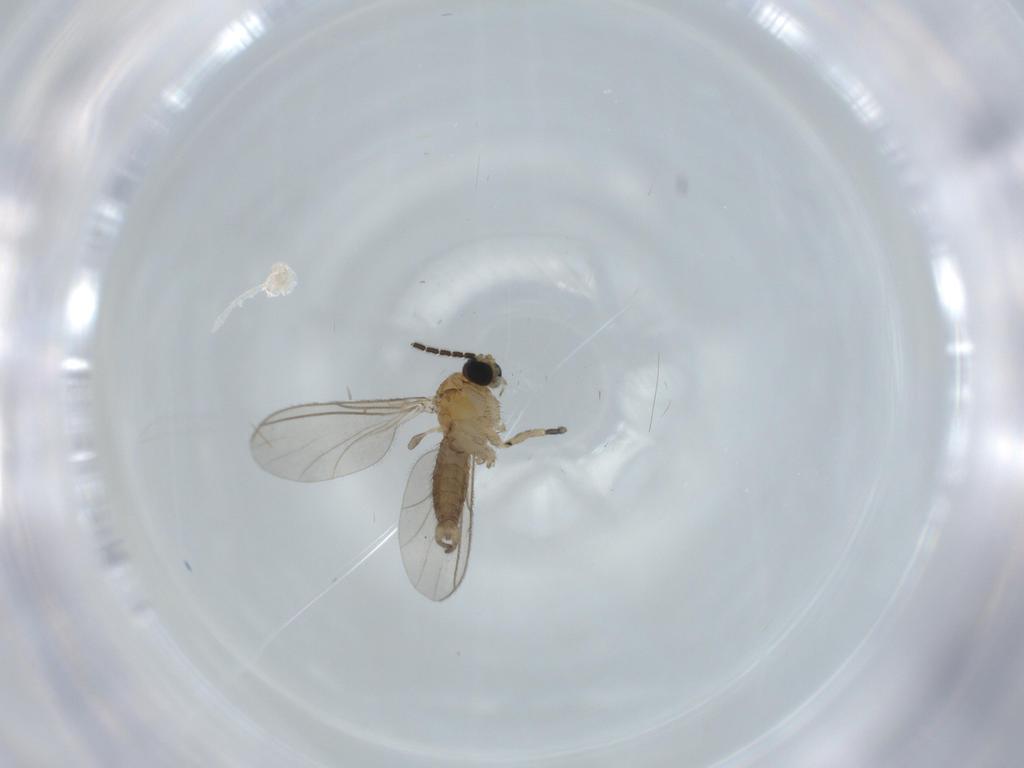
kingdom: Animalia
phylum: Arthropoda
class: Insecta
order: Diptera
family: Sciaridae
